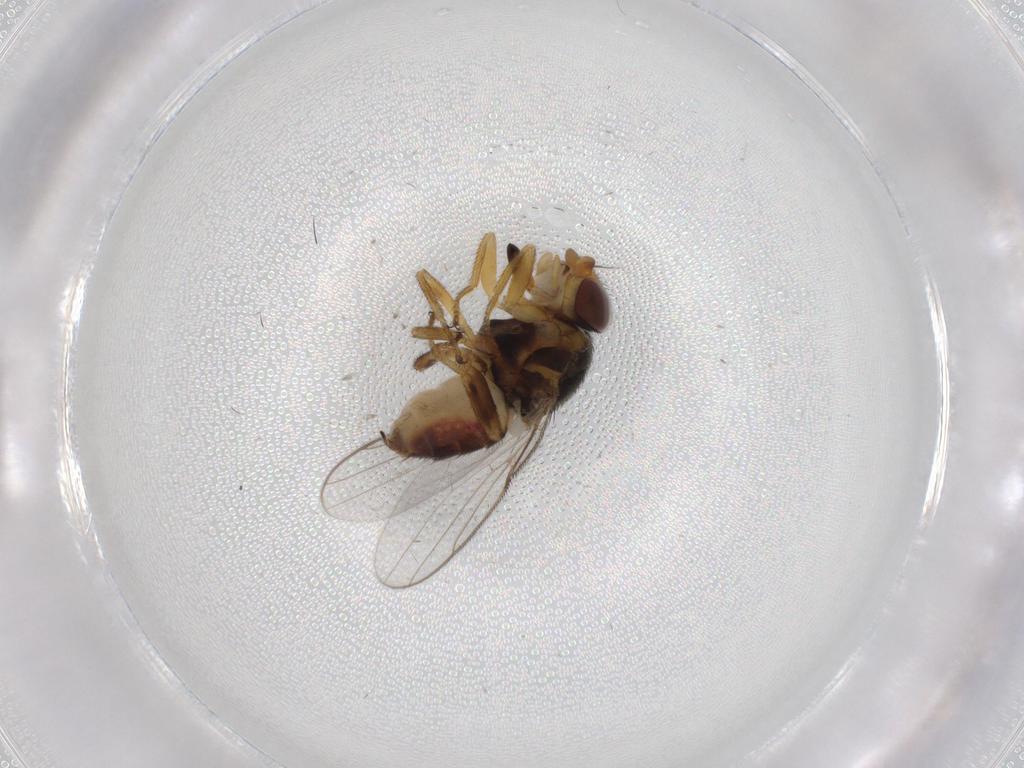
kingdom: Animalia
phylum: Arthropoda
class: Insecta
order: Diptera
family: Chloropidae
